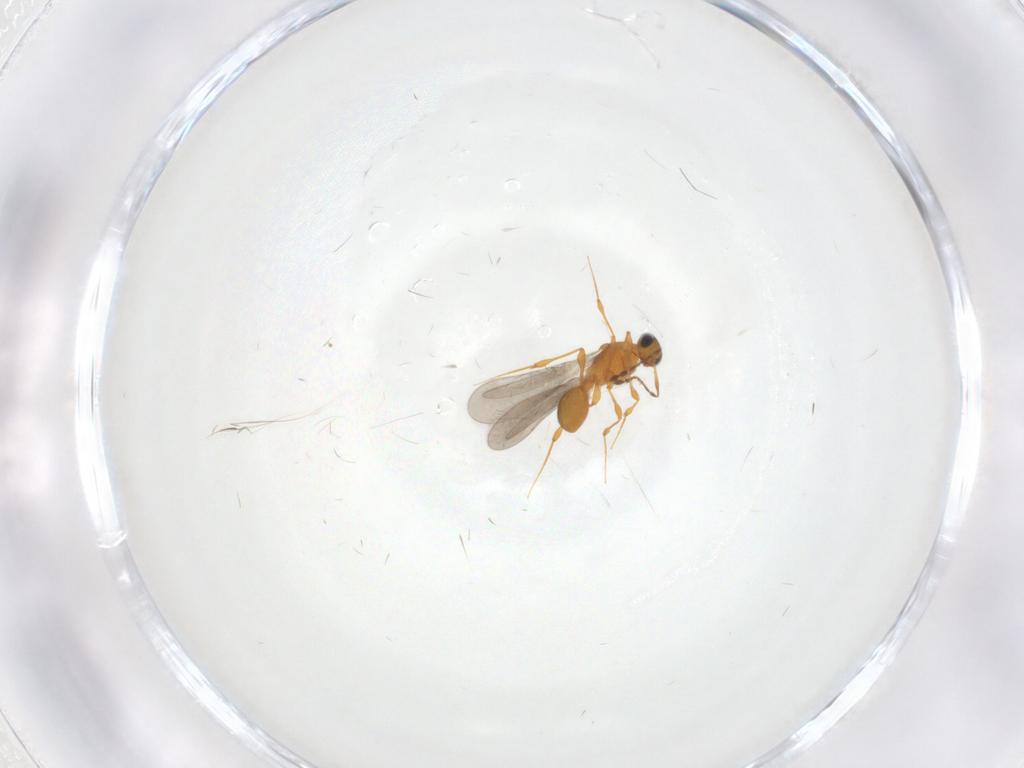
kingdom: Animalia
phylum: Arthropoda
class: Insecta
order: Hymenoptera
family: Platygastridae
